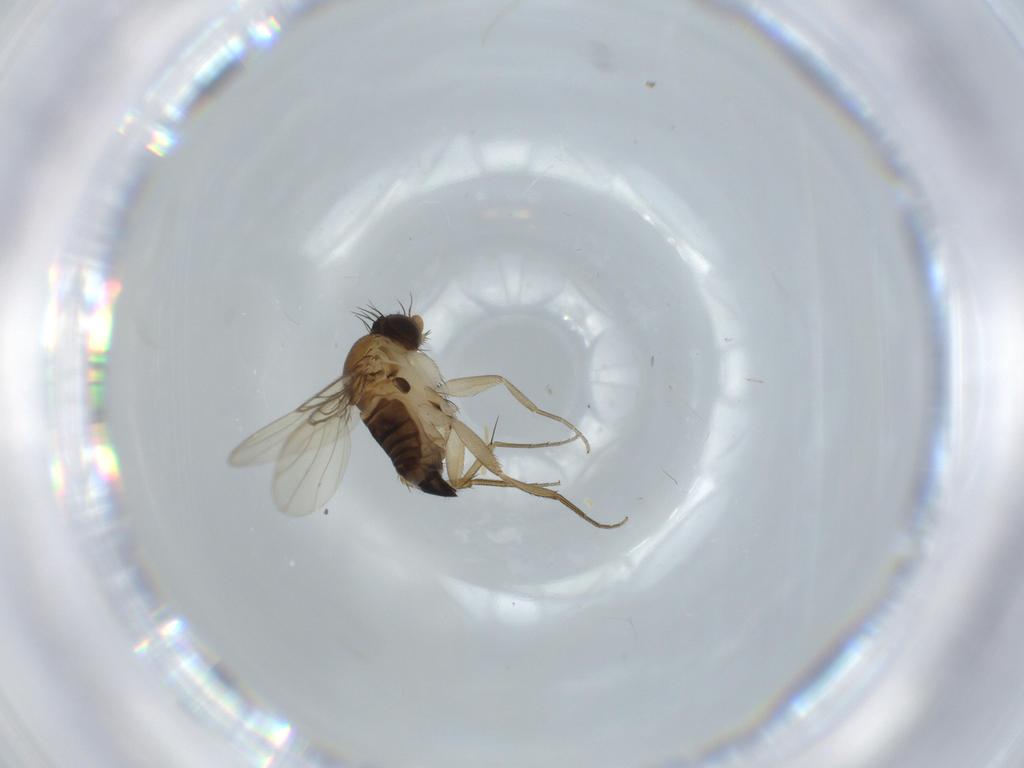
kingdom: Animalia
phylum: Arthropoda
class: Insecta
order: Diptera
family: Phoridae
